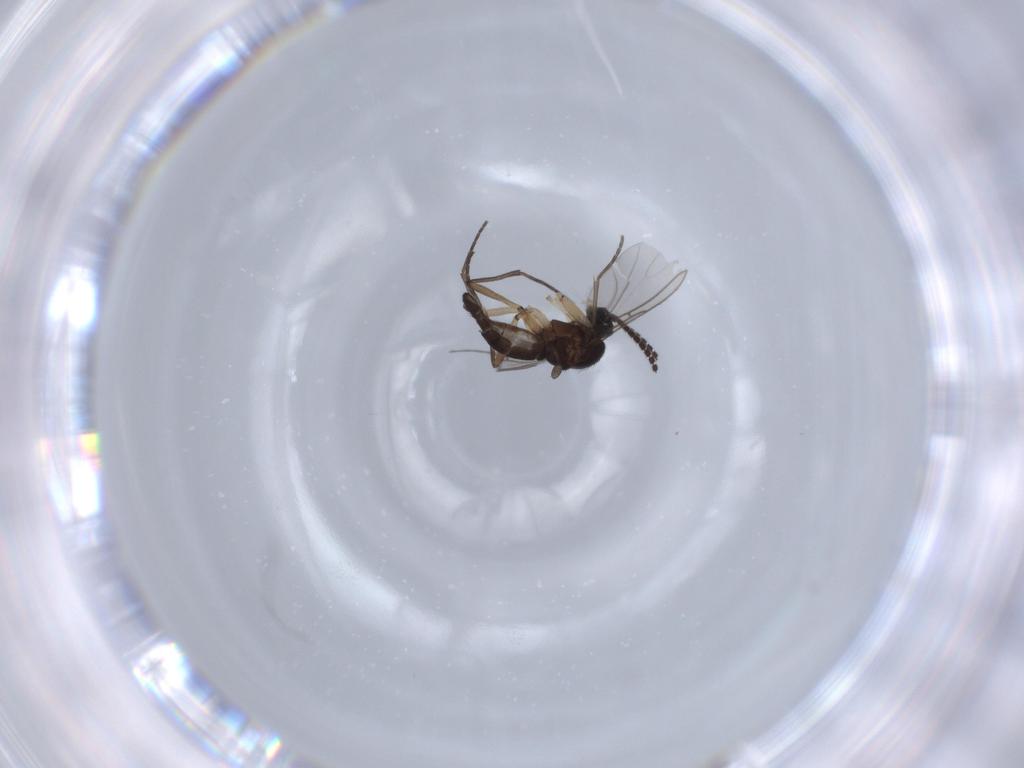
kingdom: Animalia
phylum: Arthropoda
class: Insecta
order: Diptera
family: Sciaridae
